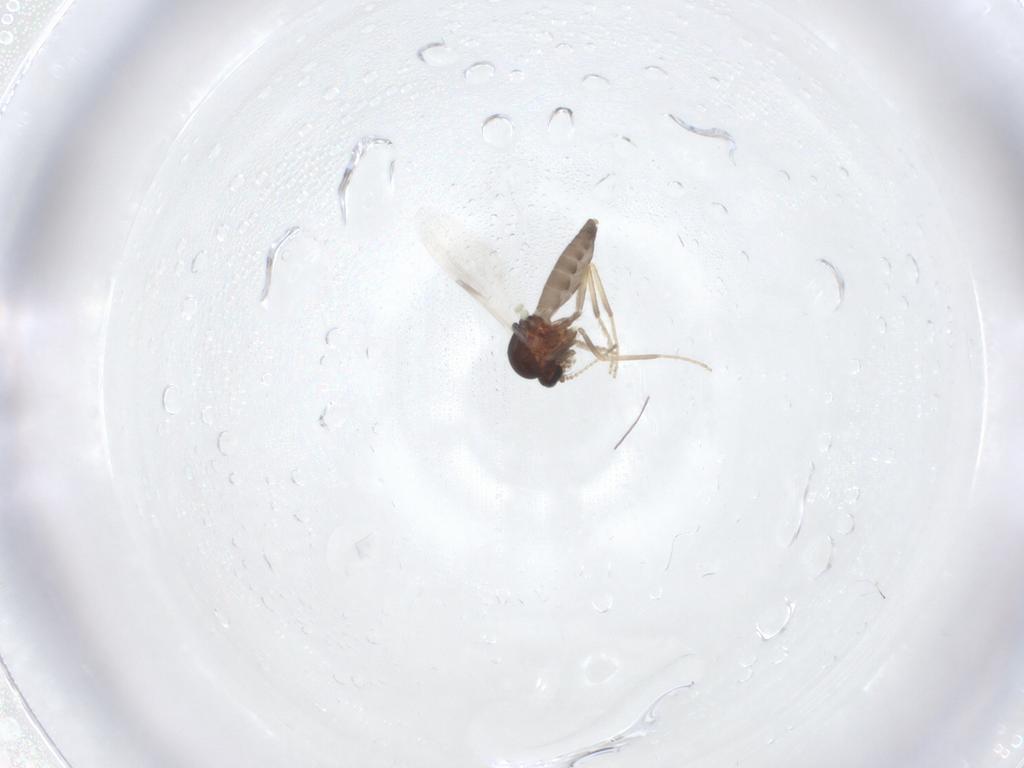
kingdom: Animalia
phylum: Arthropoda
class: Insecta
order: Diptera
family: Ceratopogonidae
